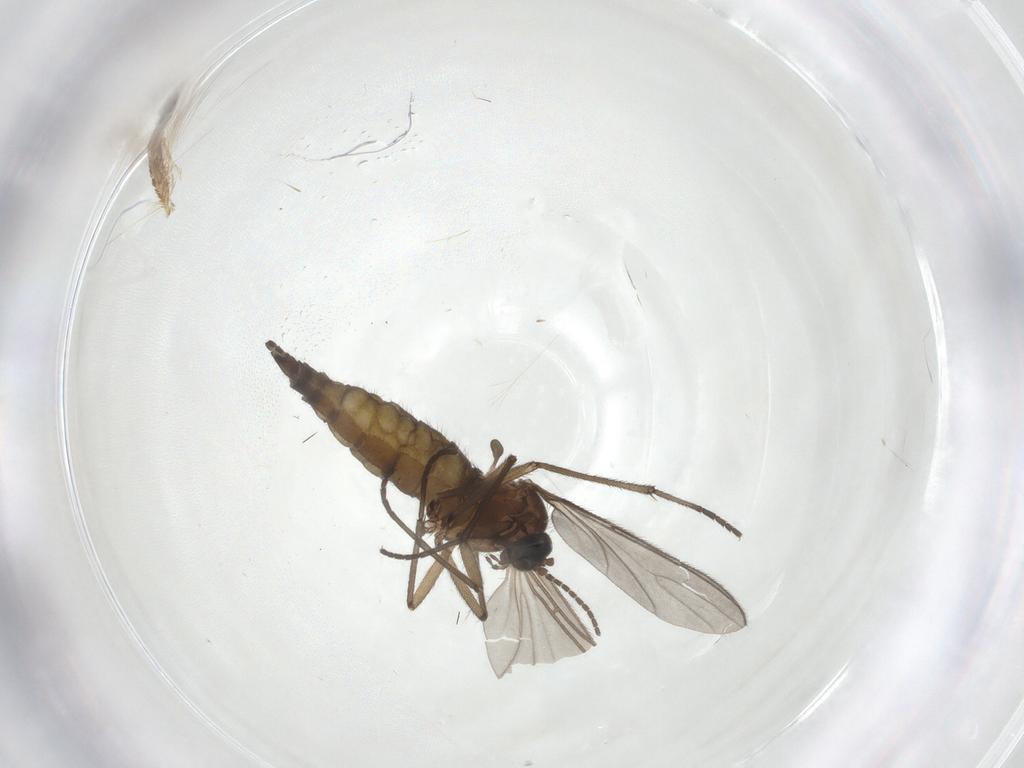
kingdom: Animalia
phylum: Arthropoda
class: Insecta
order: Diptera
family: Sciaridae
